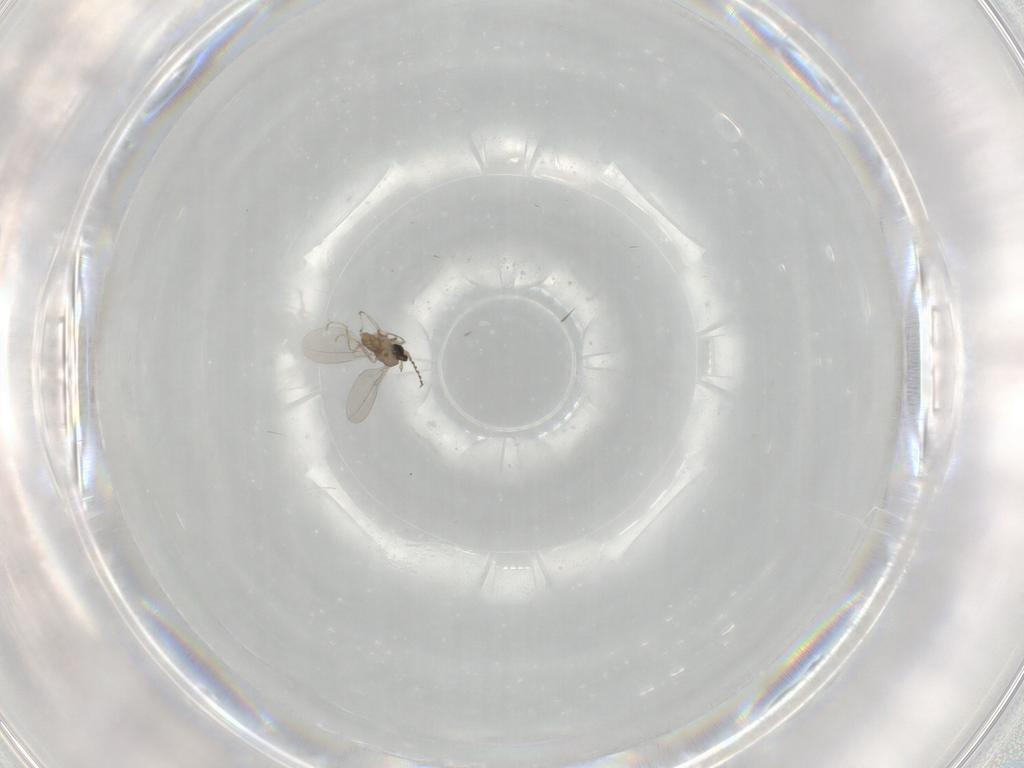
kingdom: Animalia
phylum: Arthropoda
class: Insecta
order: Diptera
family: Cecidomyiidae
